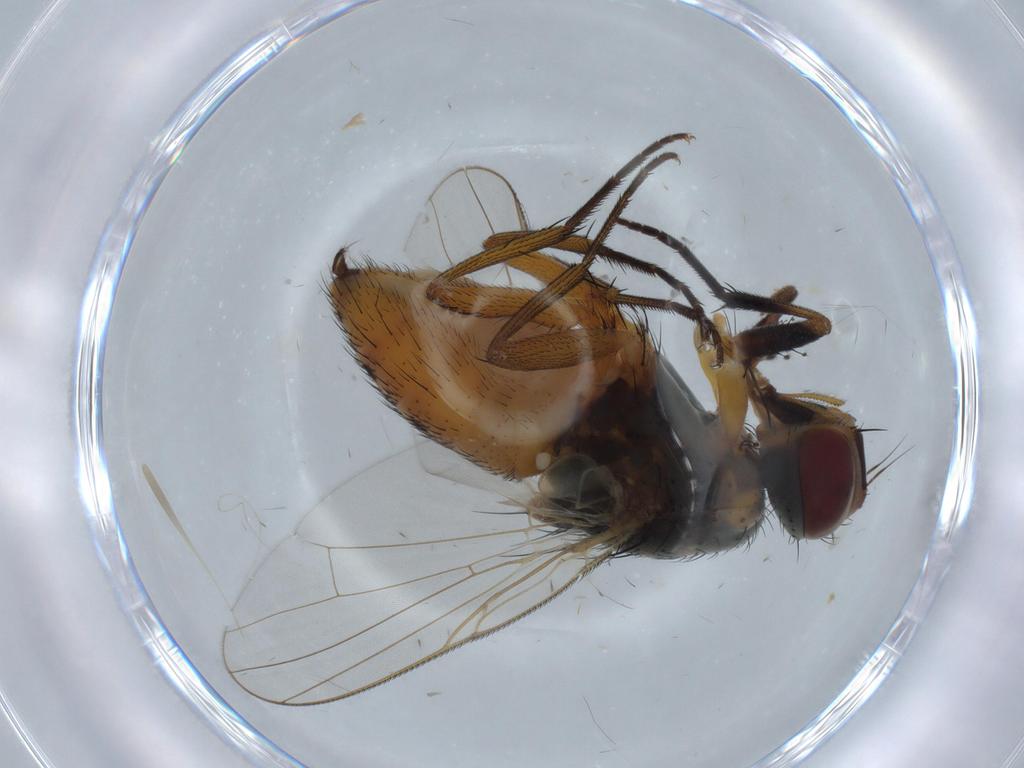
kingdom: Animalia
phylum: Arthropoda
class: Insecta
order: Diptera
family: Muscidae
